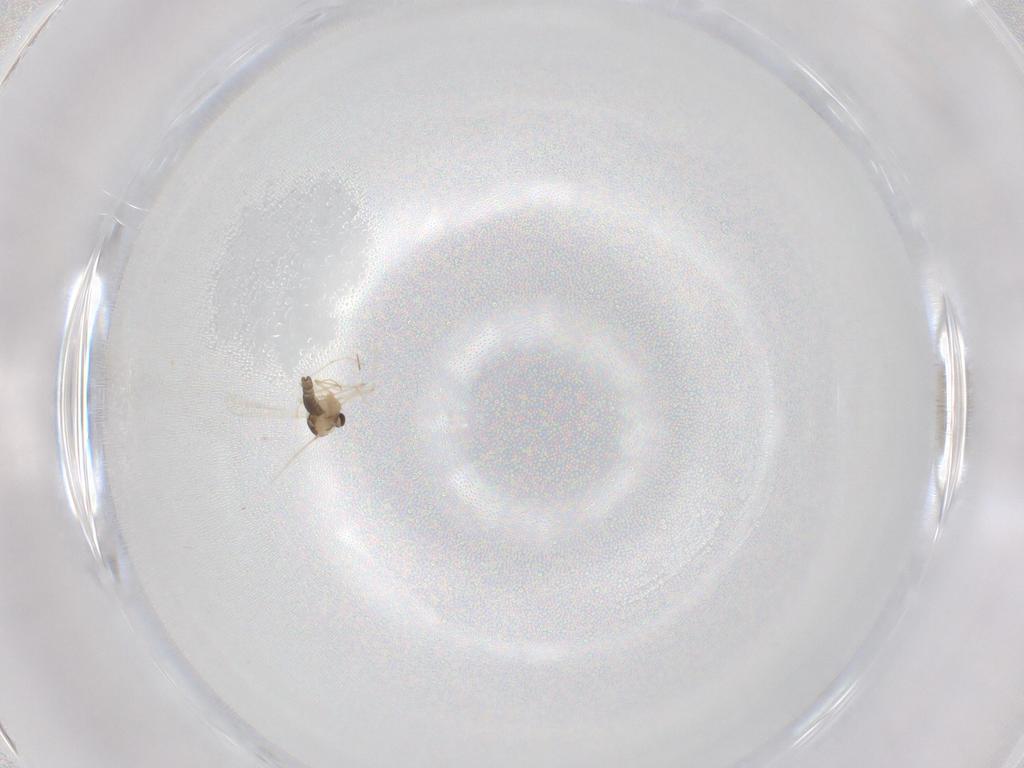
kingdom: Animalia
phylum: Arthropoda
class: Insecta
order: Diptera
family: Chironomidae
